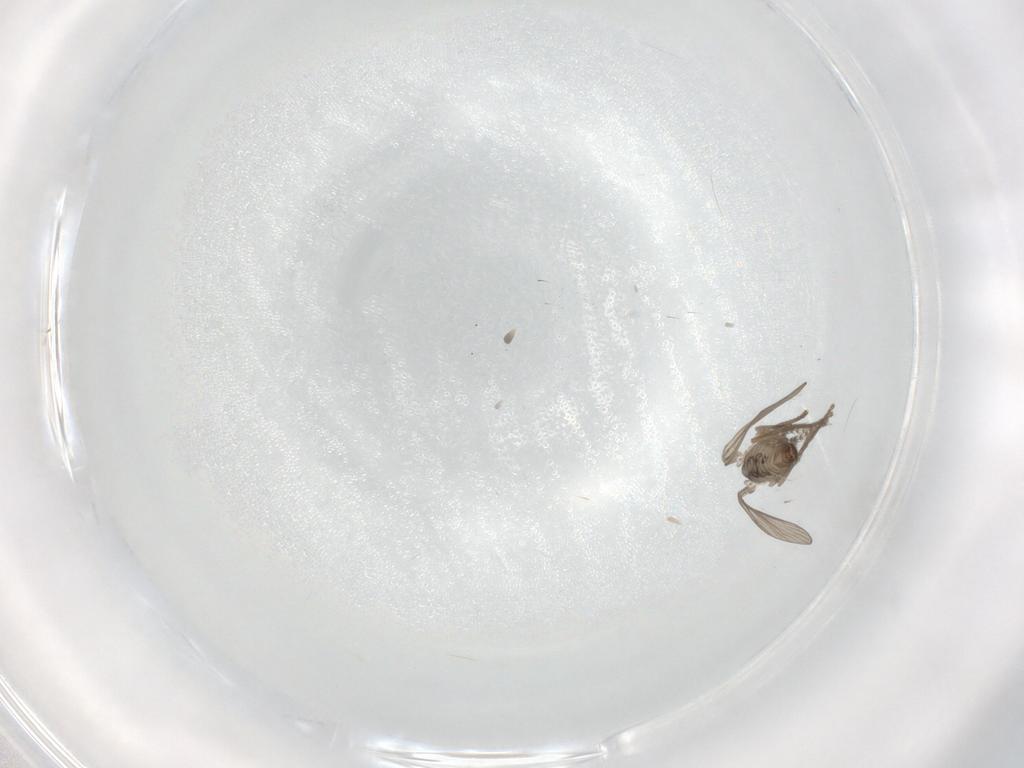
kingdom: Animalia
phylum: Arthropoda
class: Insecta
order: Diptera
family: Psychodidae
